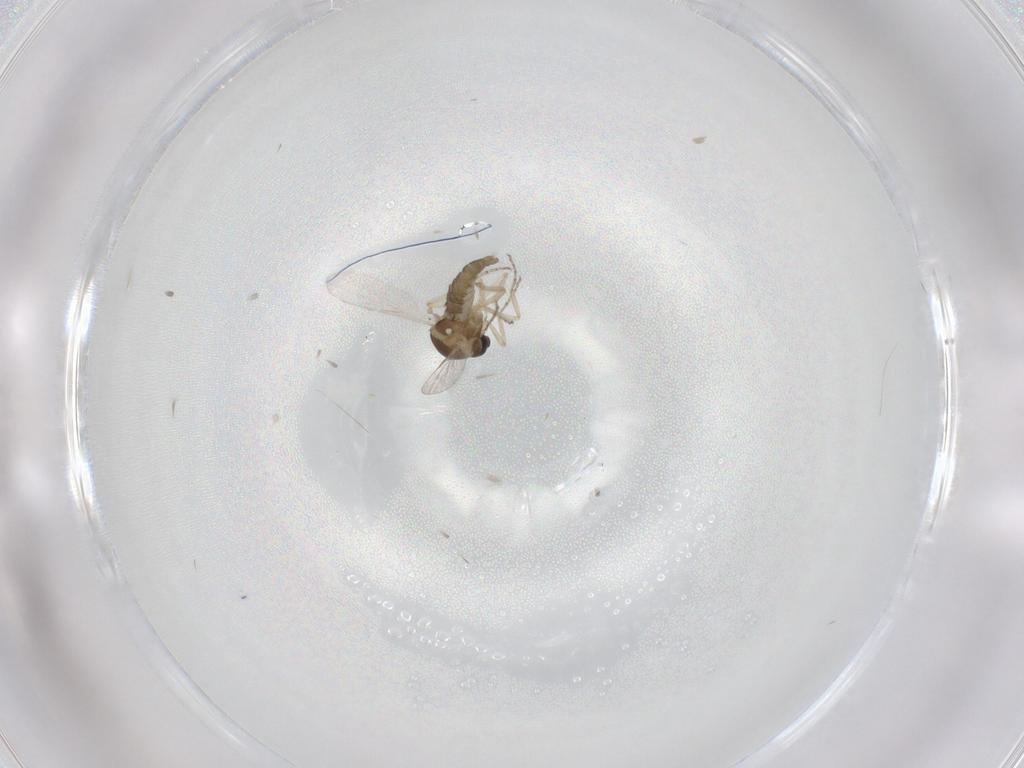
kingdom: Animalia
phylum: Arthropoda
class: Insecta
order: Diptera
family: Ceratopogonidae
